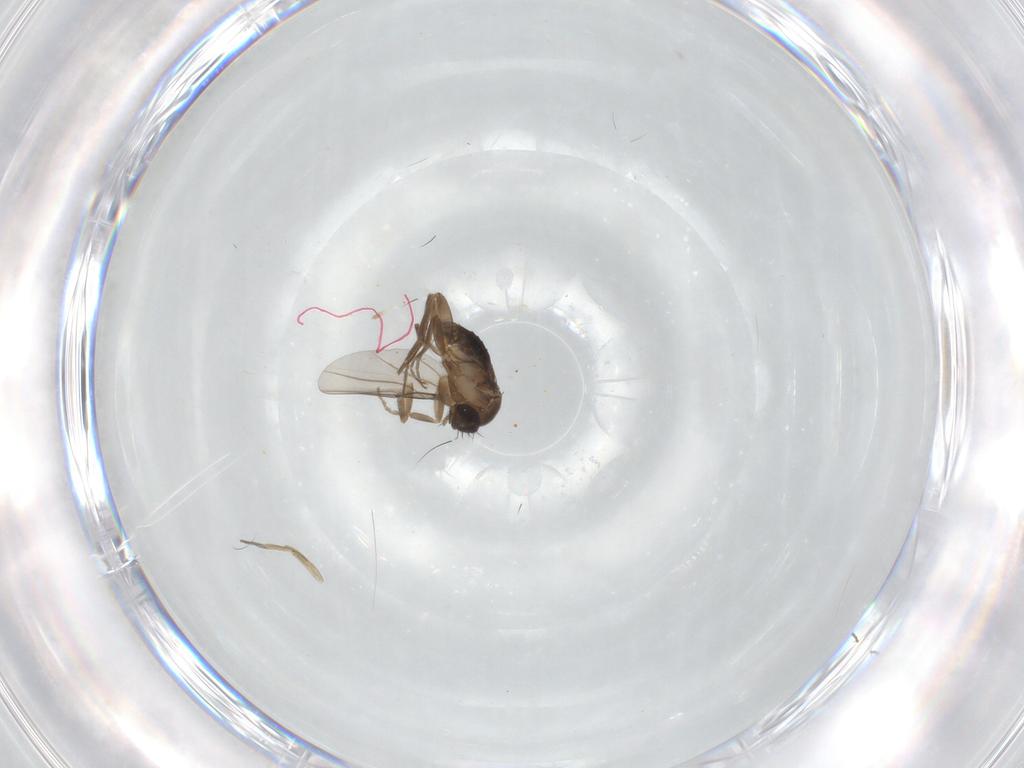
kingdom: Animalia
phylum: Arthropoda
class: Insecta
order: Diptera
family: Phoridae
